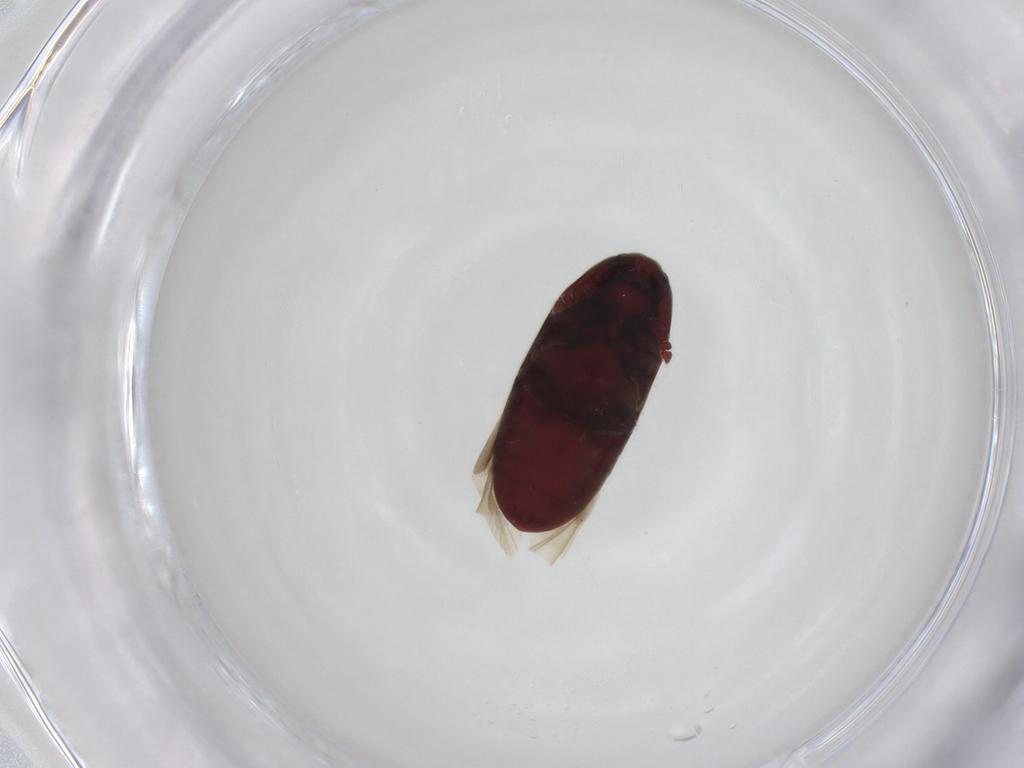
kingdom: Animalia
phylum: Arthropoda
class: Insecta
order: Coleoptera
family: Throscidae
